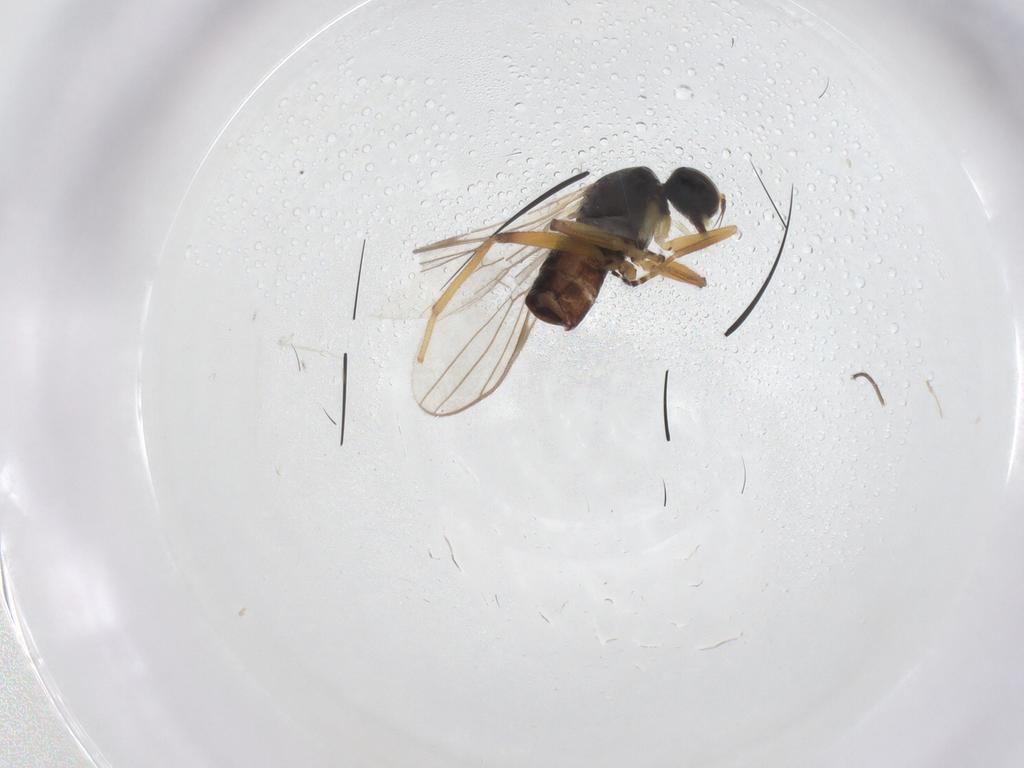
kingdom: Animalia
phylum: Arthropoda
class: Insecta
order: Diptera
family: Hybotidae
